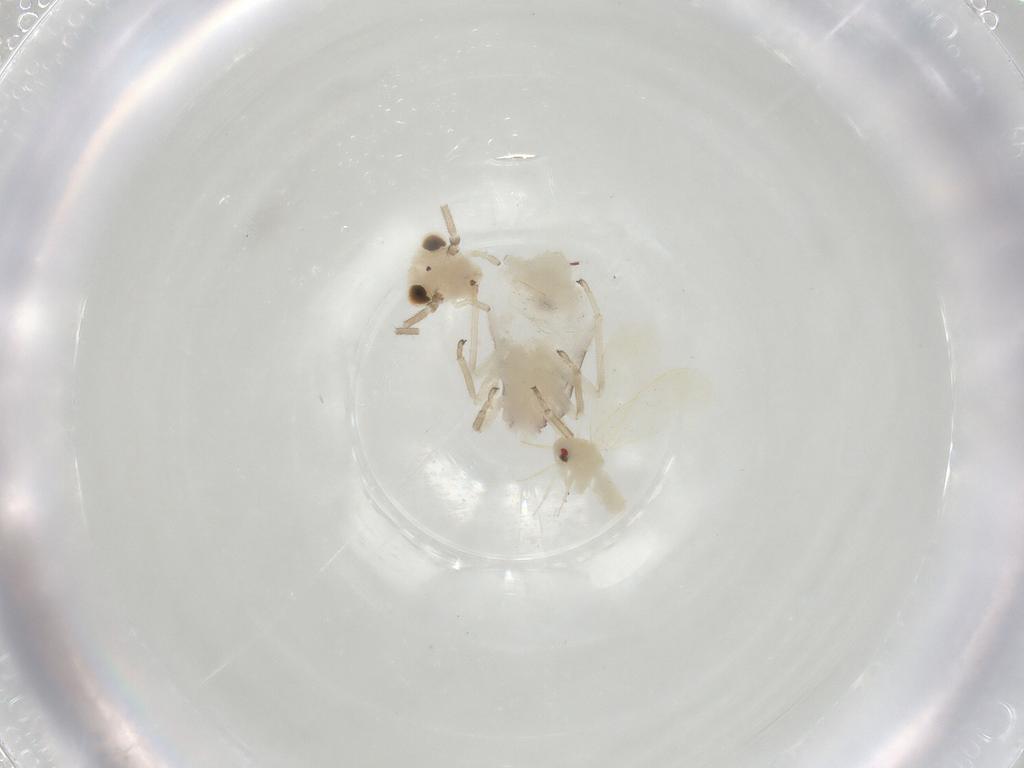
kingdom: Animalia
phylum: Arthropoda
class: Insecta
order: Psocodea
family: Caeciliusidae
